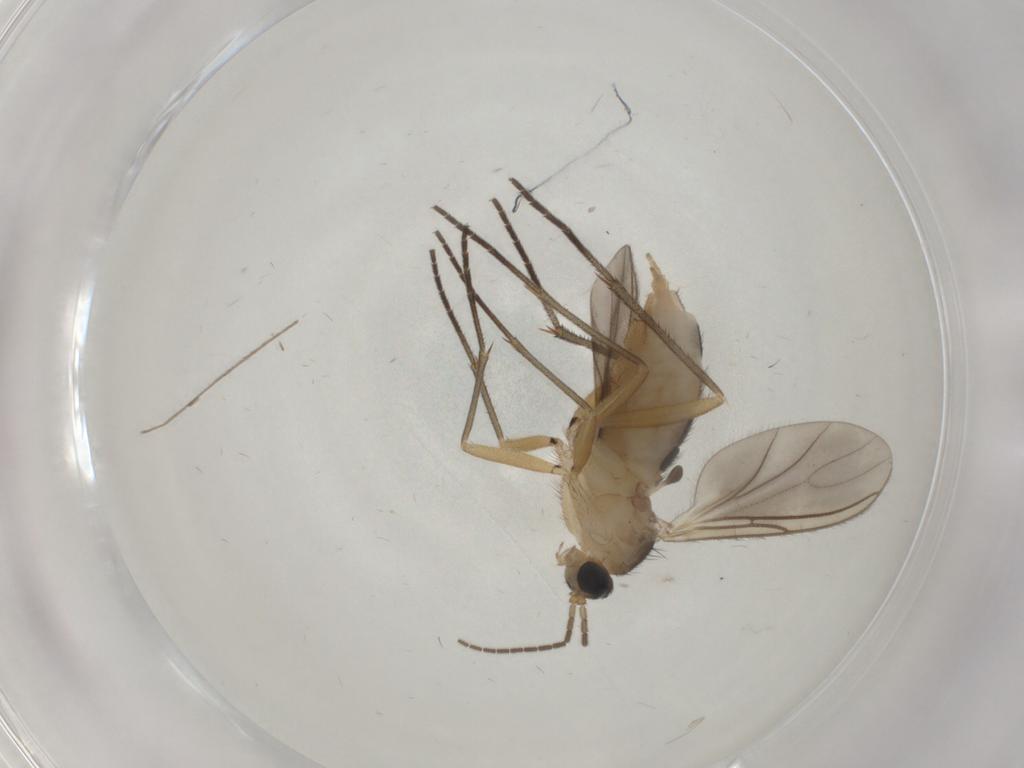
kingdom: Animalia
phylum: Arthropoda
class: Insecta
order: Diptera
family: Sciaridae
